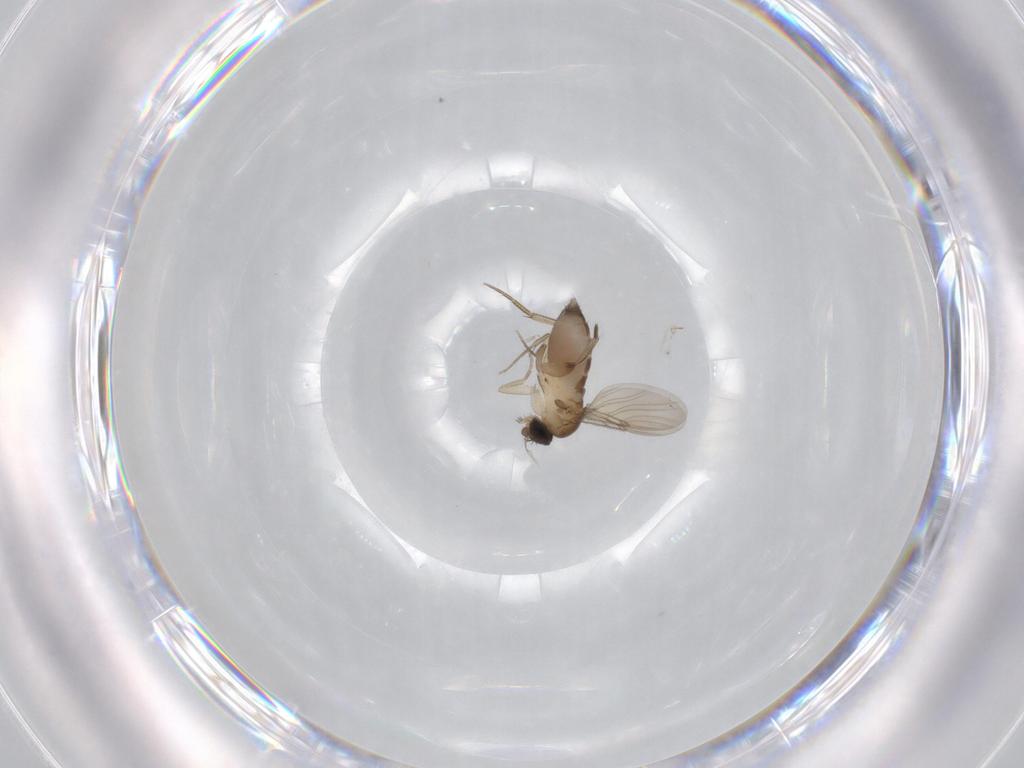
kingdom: Animalia
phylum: Arthropoda
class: Insecta
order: Diptera
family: Phoridae
